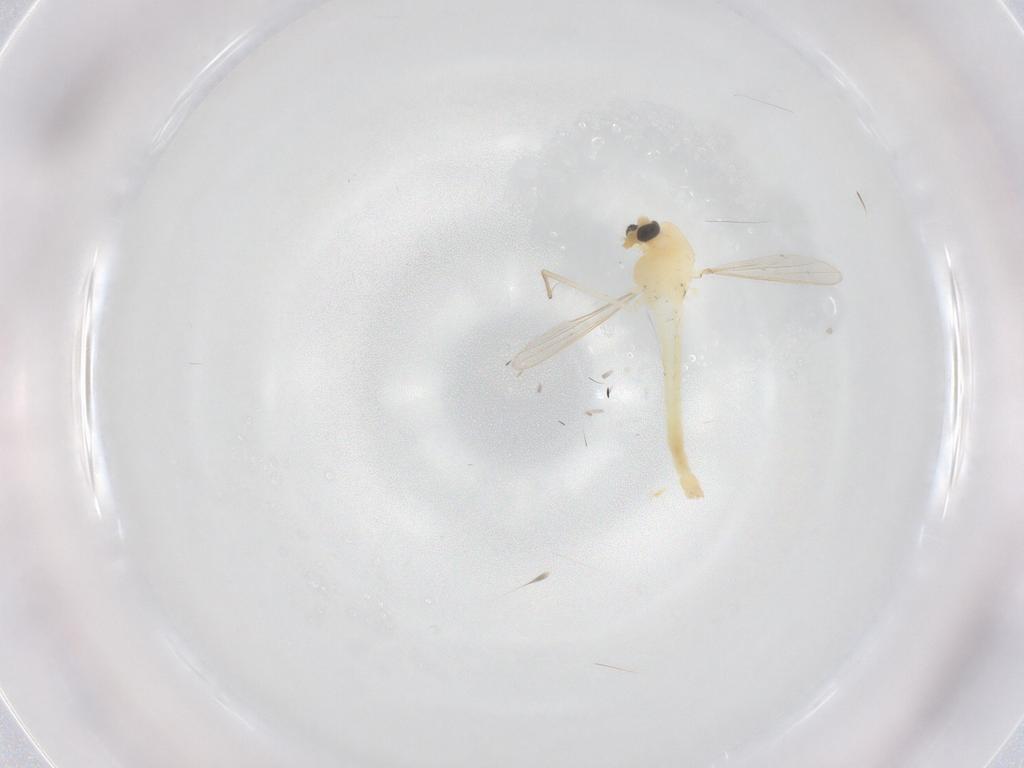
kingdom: Animalia
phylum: Arthropoda
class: Insecta
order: Diptera
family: Chironomidae
